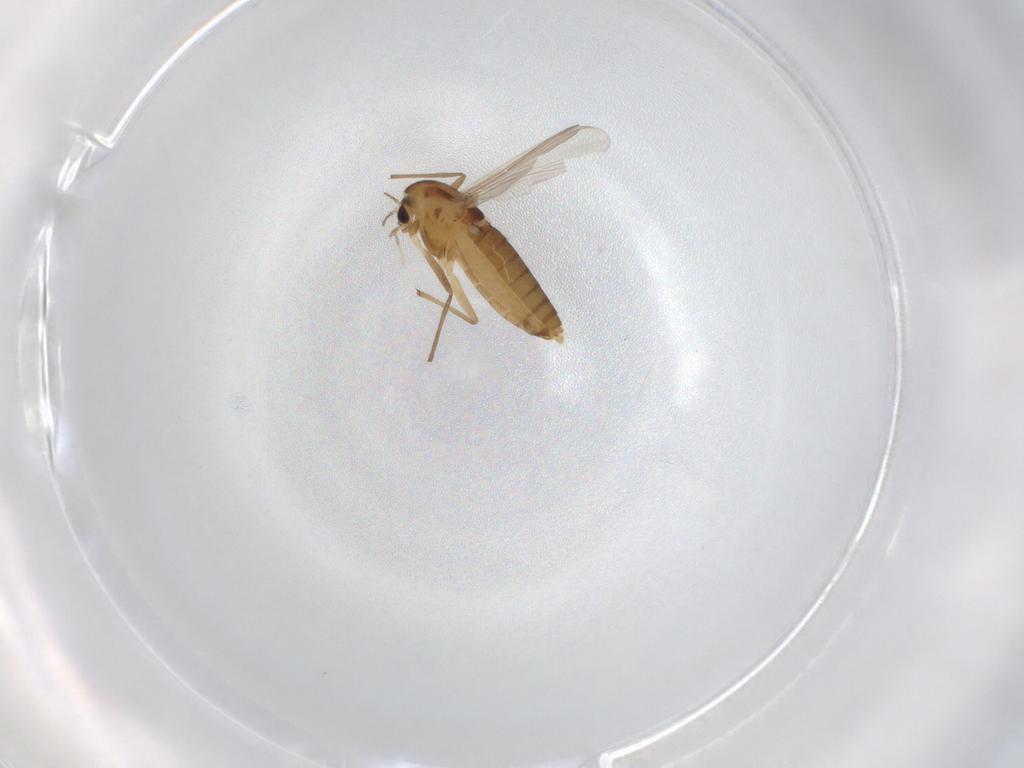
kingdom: Animalia
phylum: Arthropoda
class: Insecta
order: Diptera
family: Chironomidae
